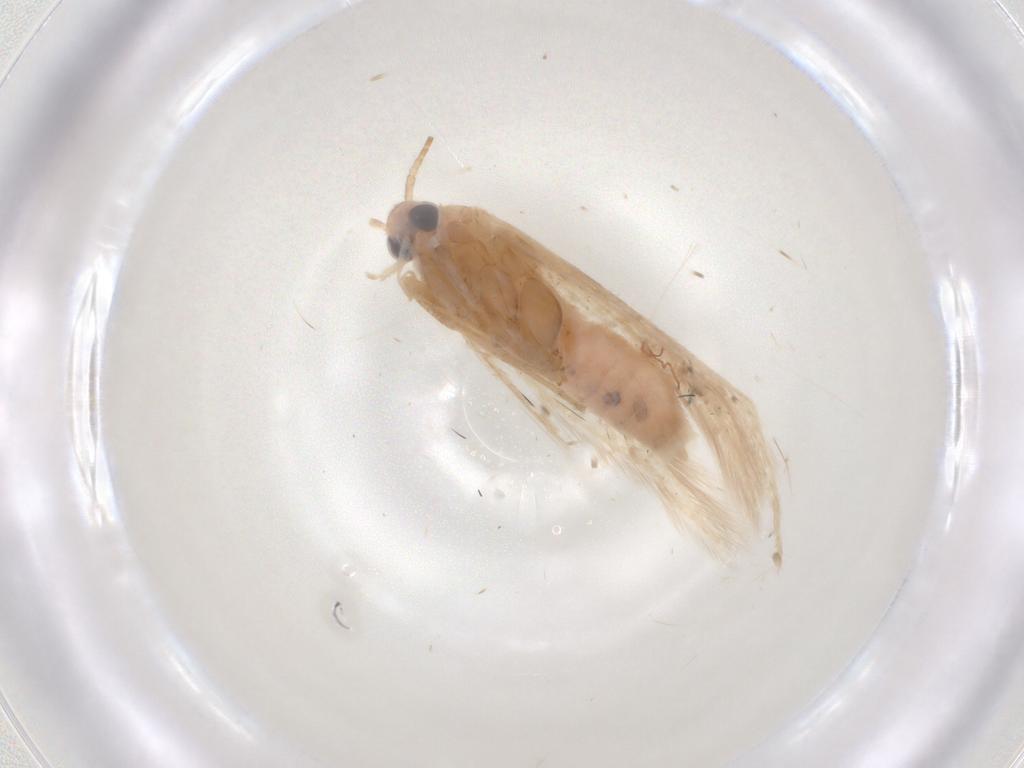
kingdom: Animalia
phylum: Arthropoda
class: Insecta
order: Lepidoptera
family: Coleophoridae
